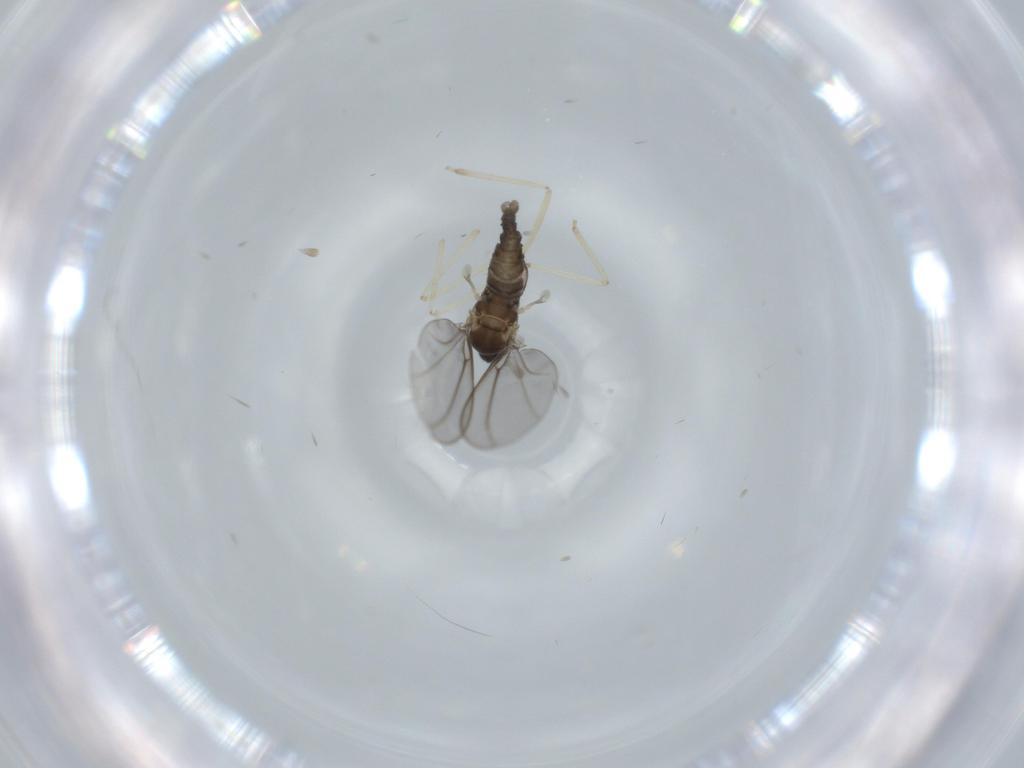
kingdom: Animalia
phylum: Arthropoda
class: Insecta
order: Diptera
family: Cecidomyiidae
